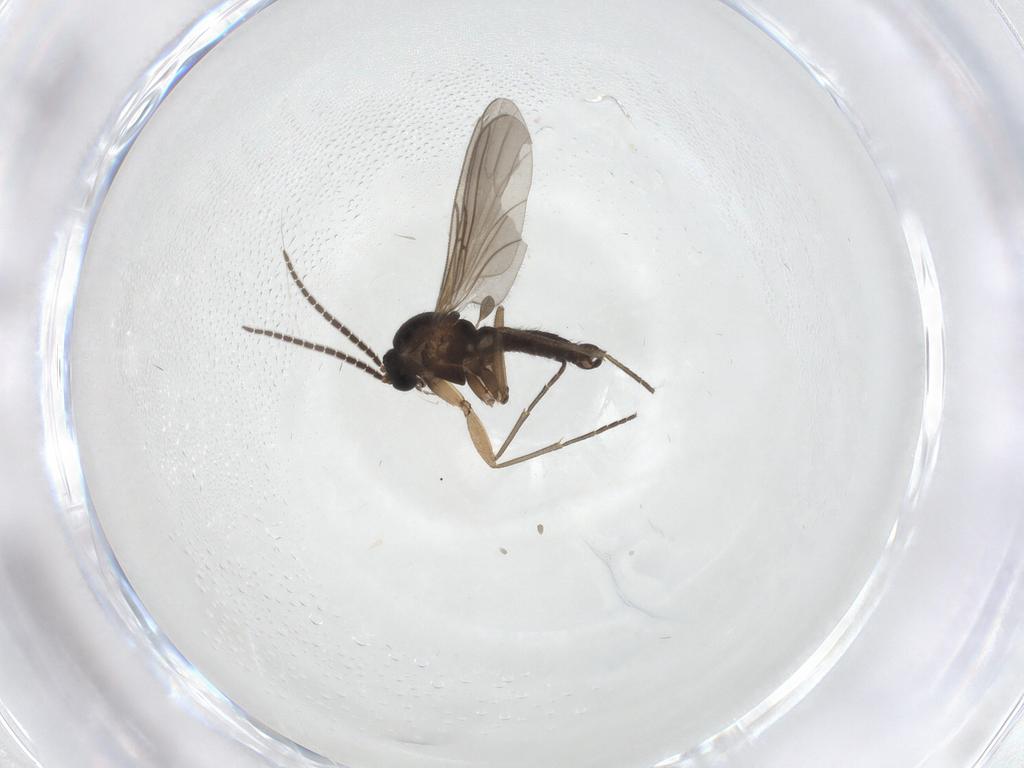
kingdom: Animalia
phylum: Arthropoda
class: Insecta
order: Diptera
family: Sciaridae
